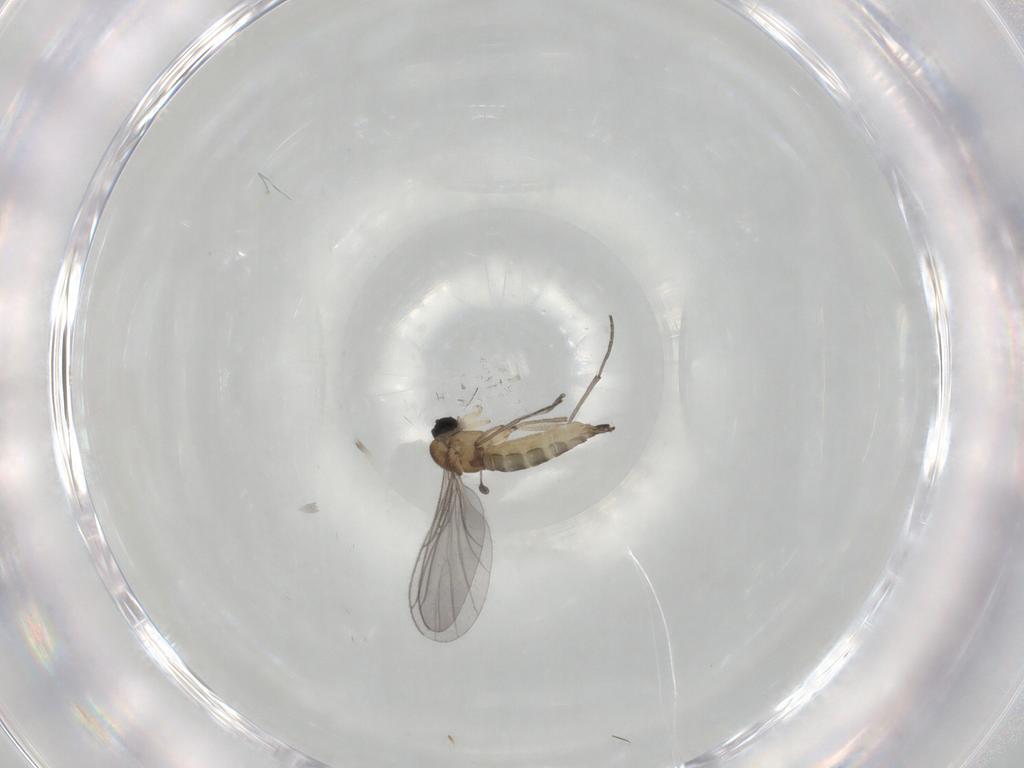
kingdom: Animalia
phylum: Arthropoda
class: Insecta
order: Diptera
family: Sciaridae
